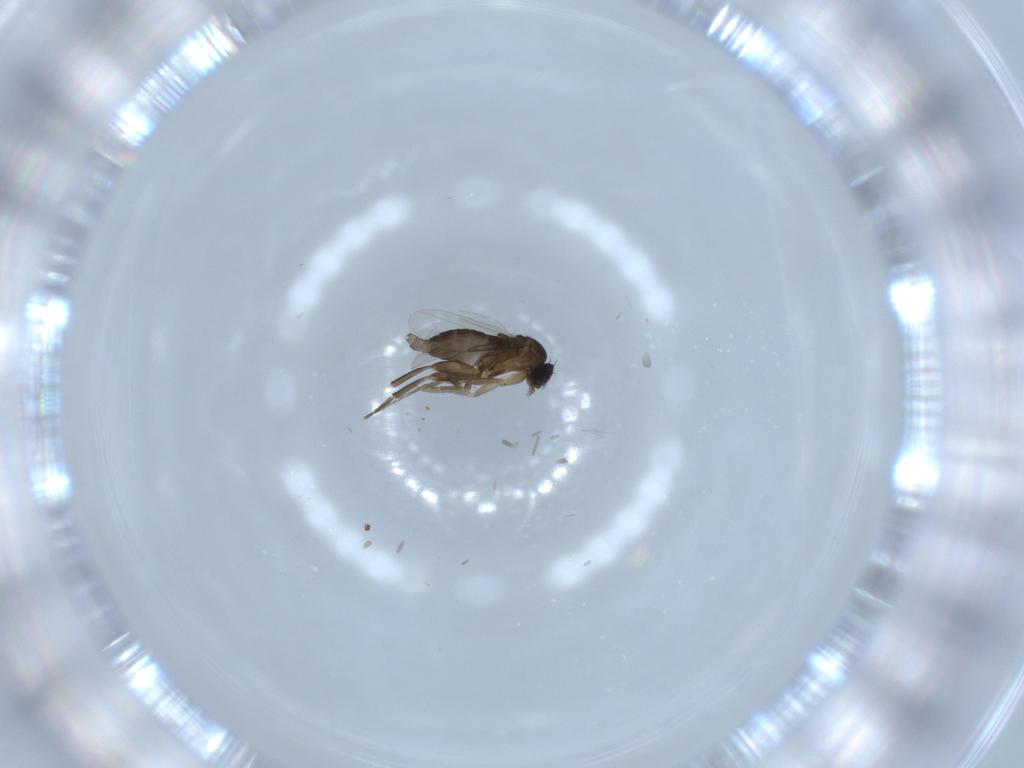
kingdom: Animalia
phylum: Arthropoda
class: Insecta
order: Diptera
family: Phoridae
